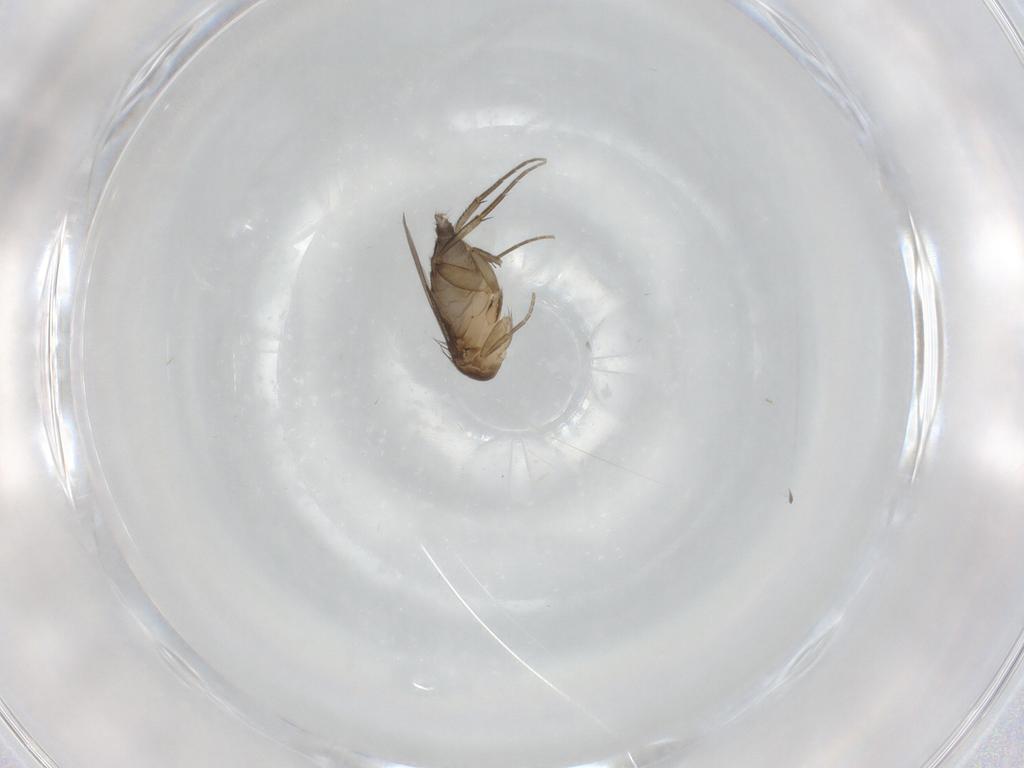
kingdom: Animalia
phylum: Arthropoda
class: Insecta
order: Diptera
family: Phoridae
